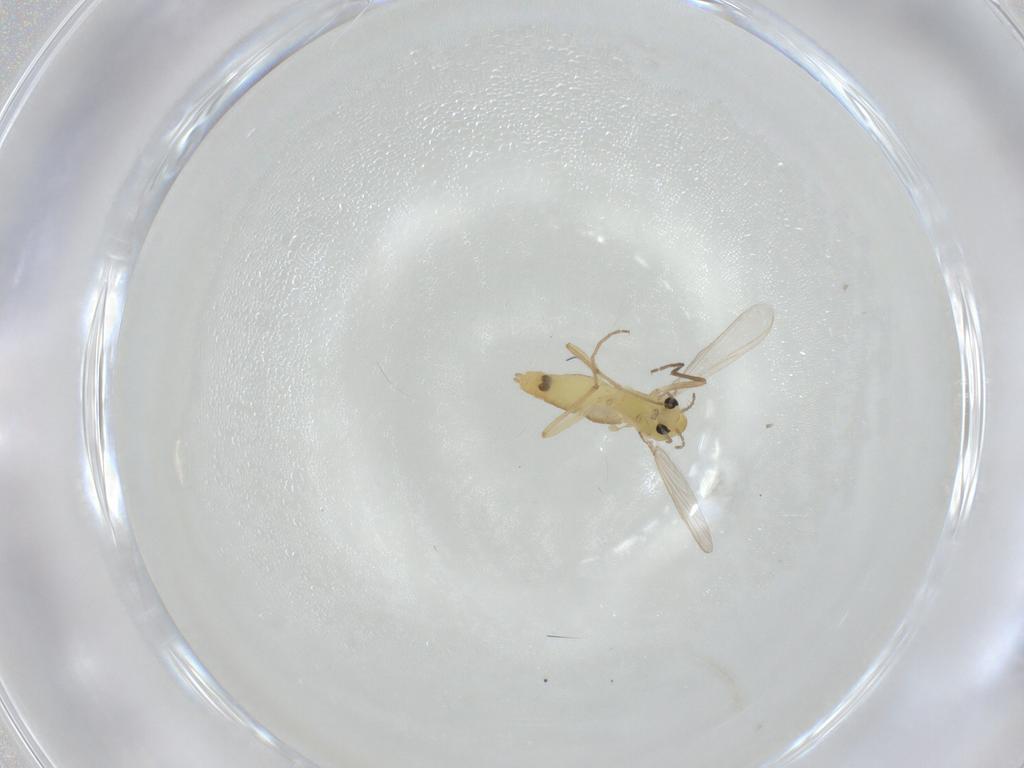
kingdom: Animalia
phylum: Arthropoda
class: Insecta
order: Diptera
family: Chironomidae
